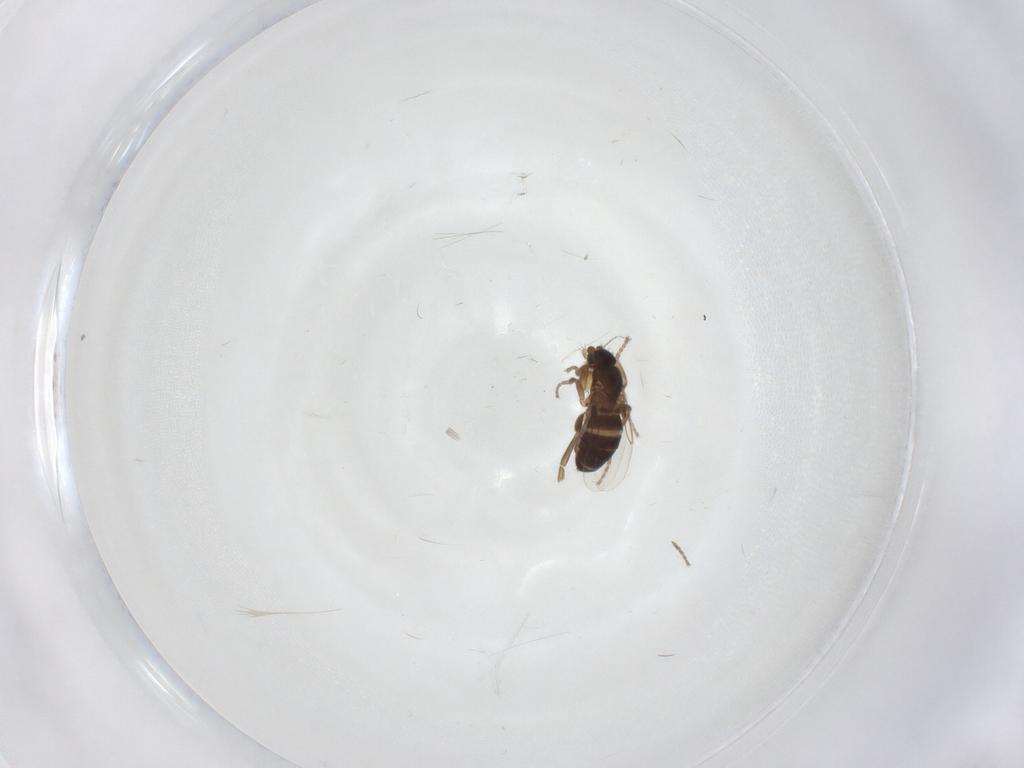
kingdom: Animalia
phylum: Arthropoda
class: Insecta
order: Diptera
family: Phoridae
